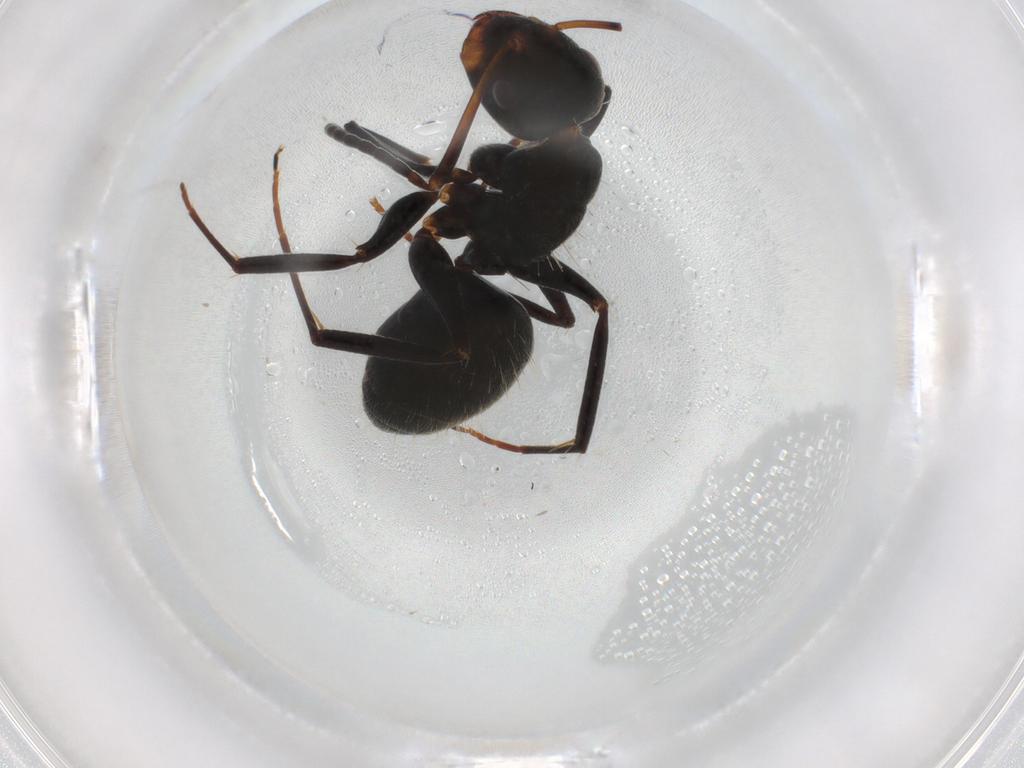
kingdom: Animalia
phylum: Arthropoda
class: Insecta
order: Hymenoptera
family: Formicidae
